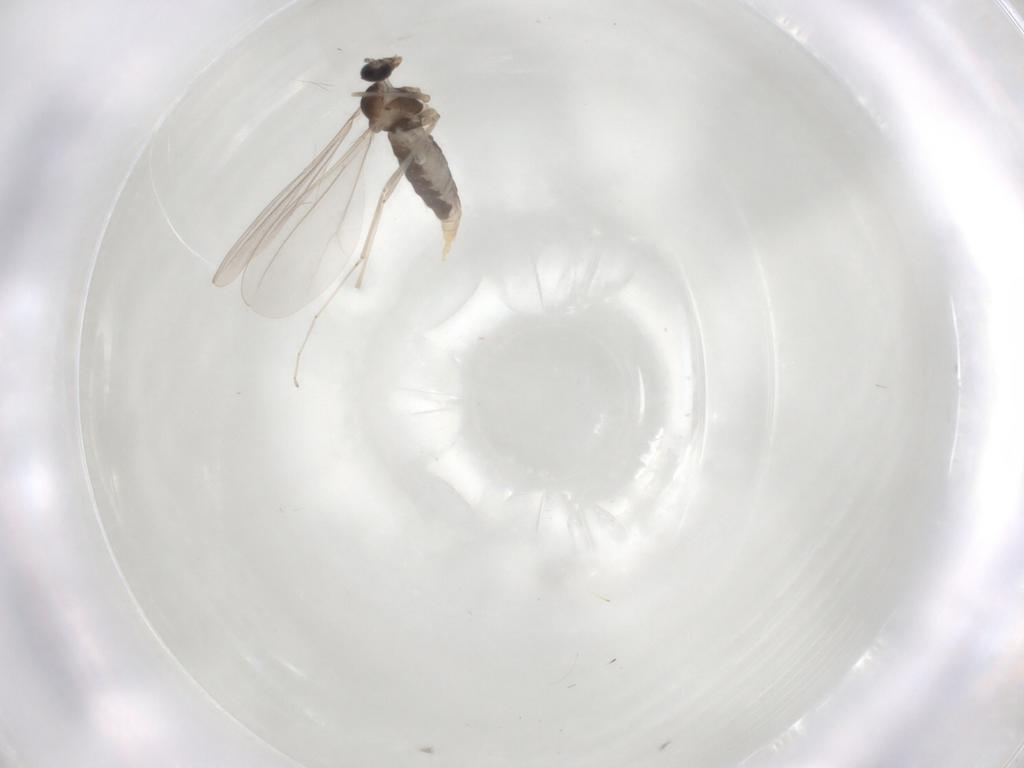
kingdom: Animalia
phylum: Arthropoda
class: Insecta
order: Diptera
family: Cecidomyiidae
